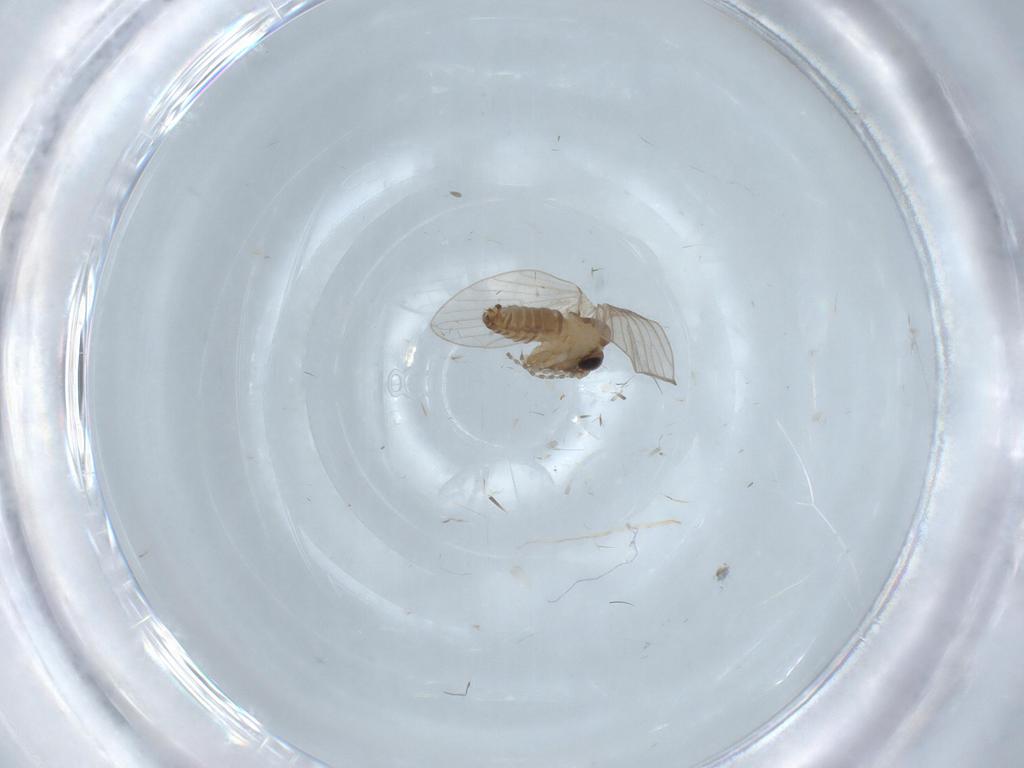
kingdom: Animalia
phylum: Arthropoda
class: Insecta
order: Diptera
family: Psychodidae
